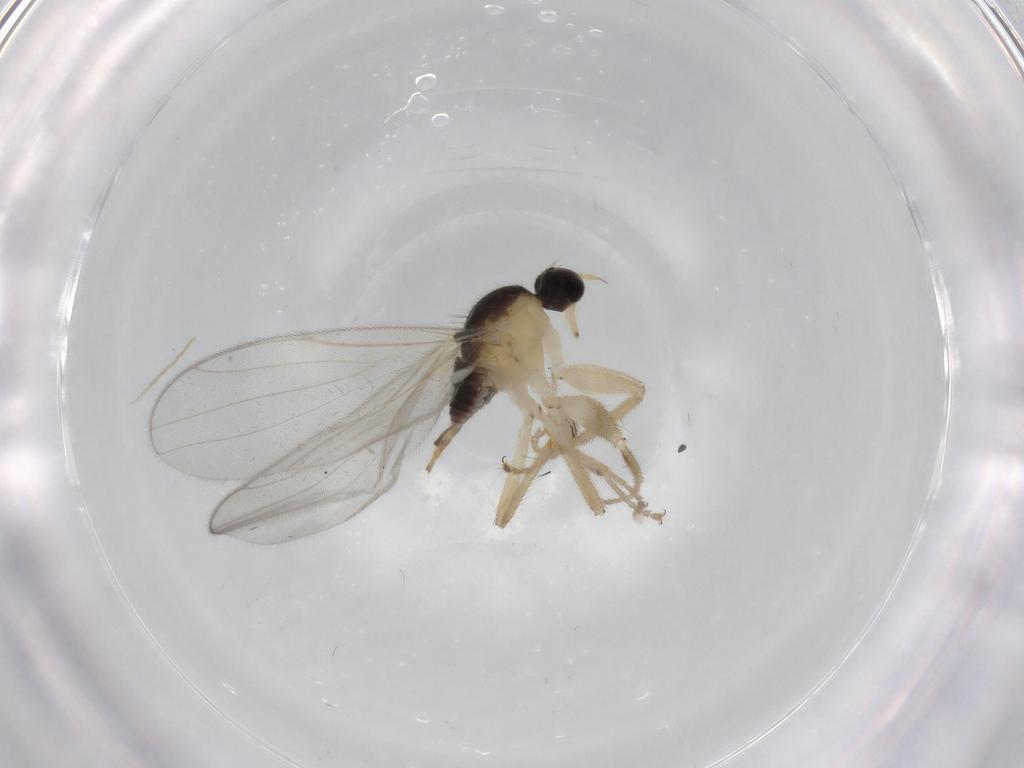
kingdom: Animalia
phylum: Arthropoda
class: Insecta
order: Diptera
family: Hybotidae
